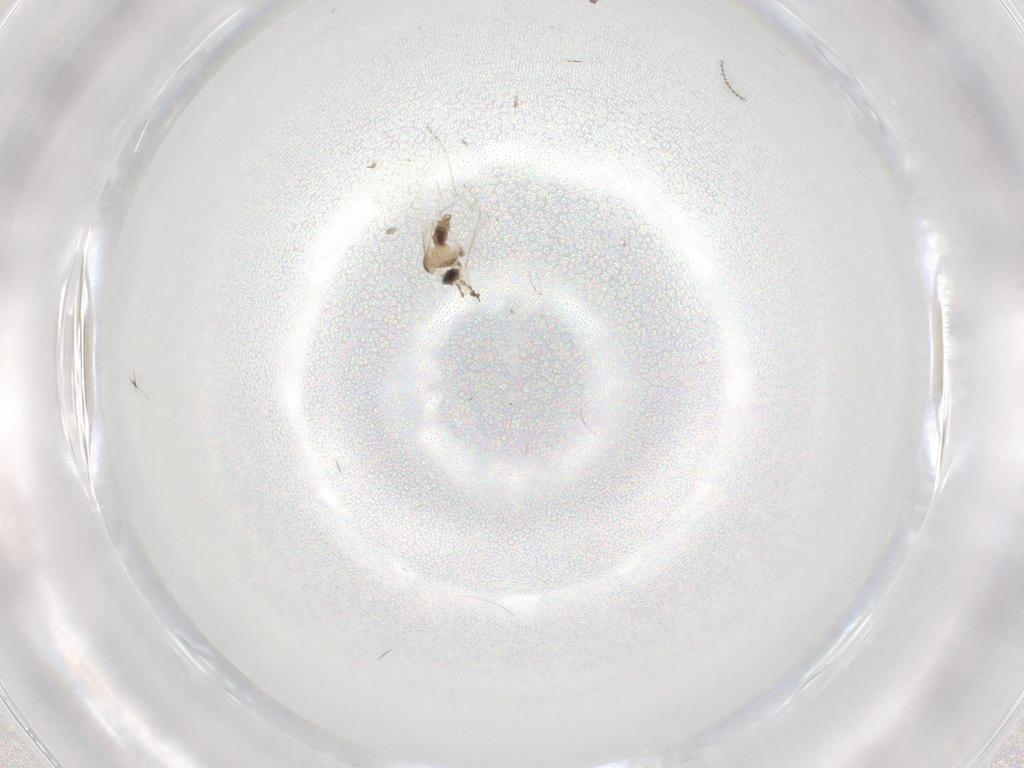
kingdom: Animalia
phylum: Arthropoda
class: Insecta
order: Diptera
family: Cecidomyiidae
